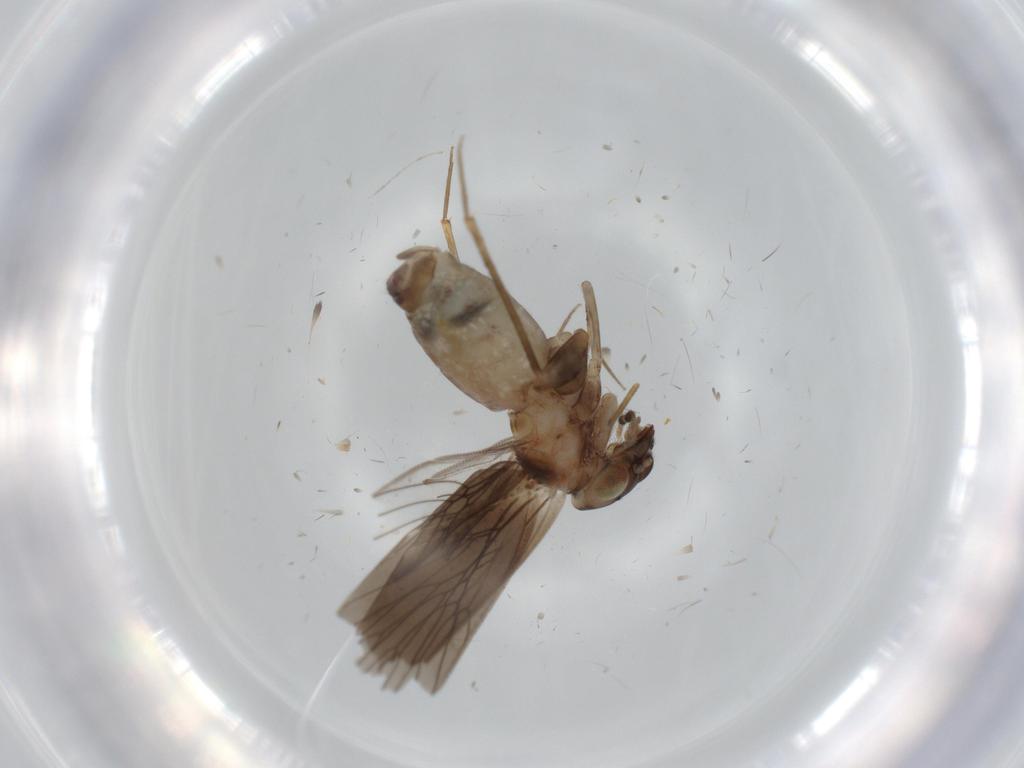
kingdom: Animalia
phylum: Arthropoda
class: Insecta
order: Psocodea
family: Lepidopsocidae
